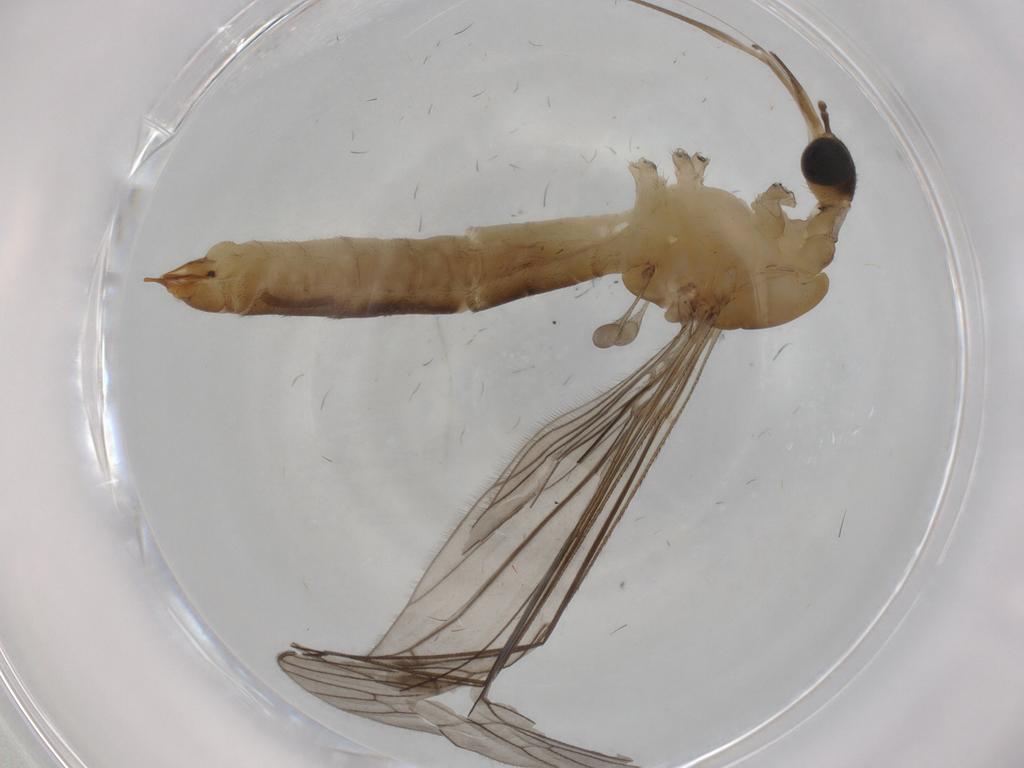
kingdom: Animalia
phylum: Arthropoda
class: Insecta
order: Diptera
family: Limoniidae
